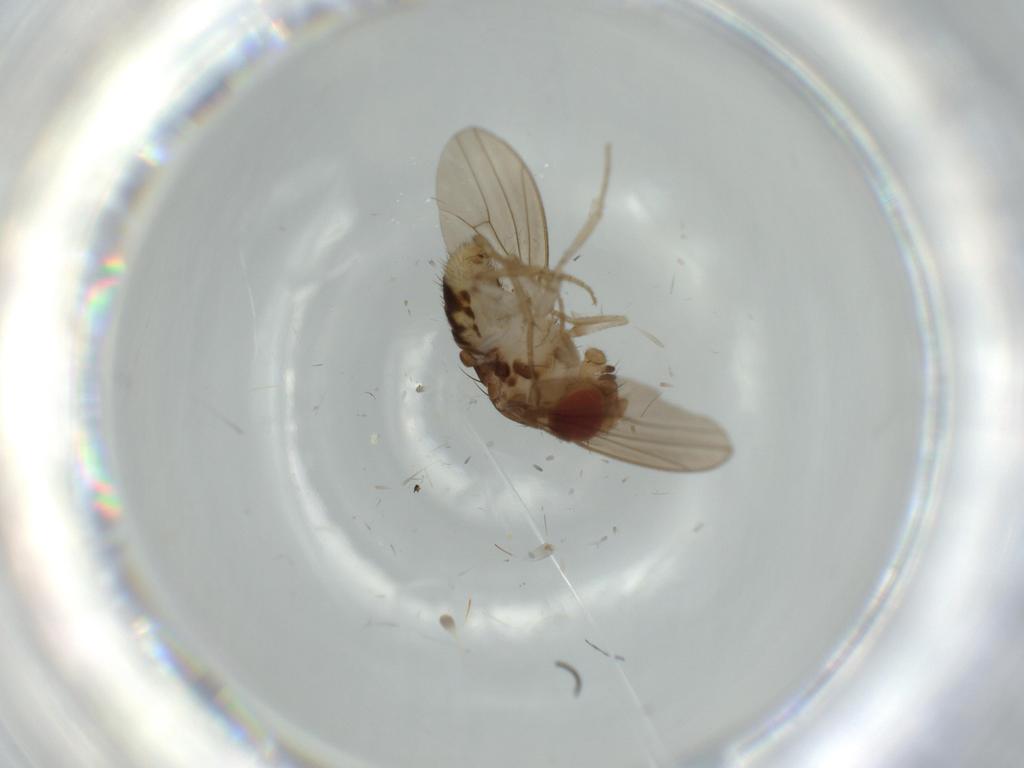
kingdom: Animalia
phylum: Arthropoda
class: Insecta
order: Diptera
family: Drosophilidae
